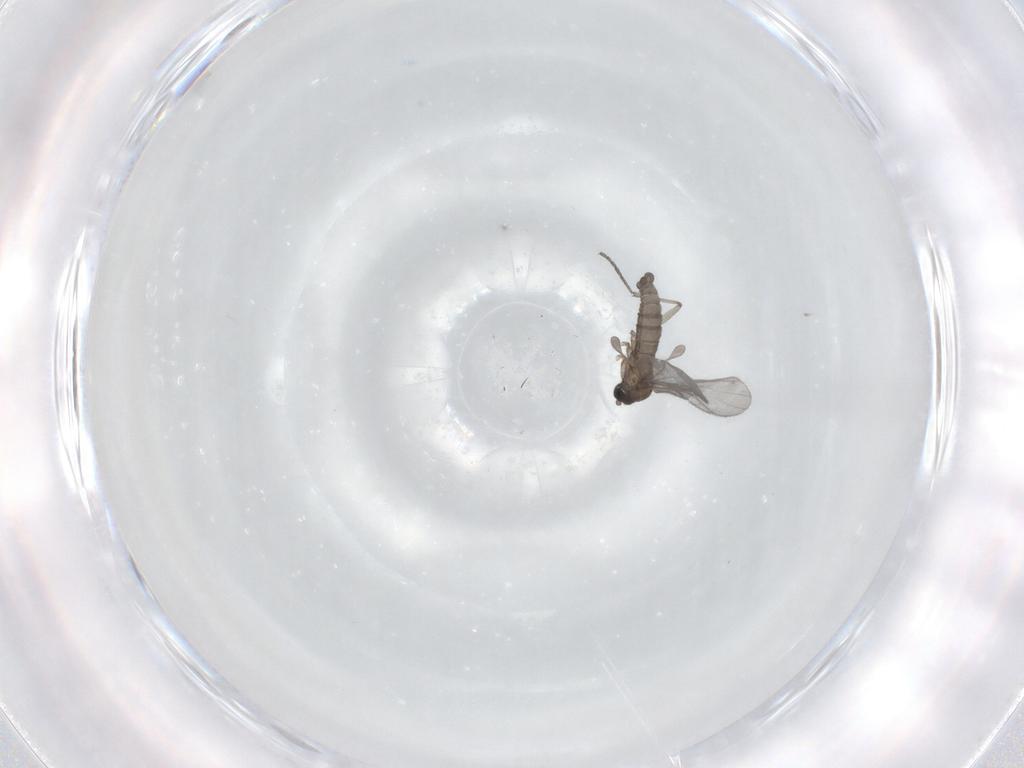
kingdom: Animalia
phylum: Arthropoda
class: Insecta
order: Diptera
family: Sciaridae
